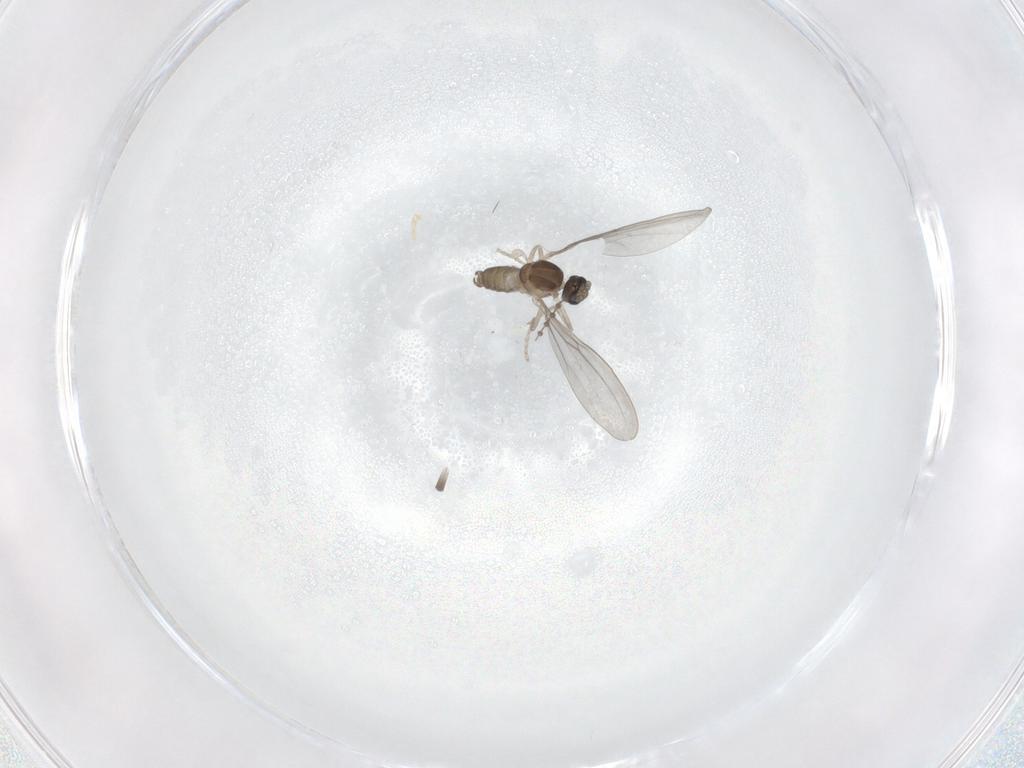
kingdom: Animalia
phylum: Arthropoda
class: Insecta
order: Diptera
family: Cecidomyiidae
